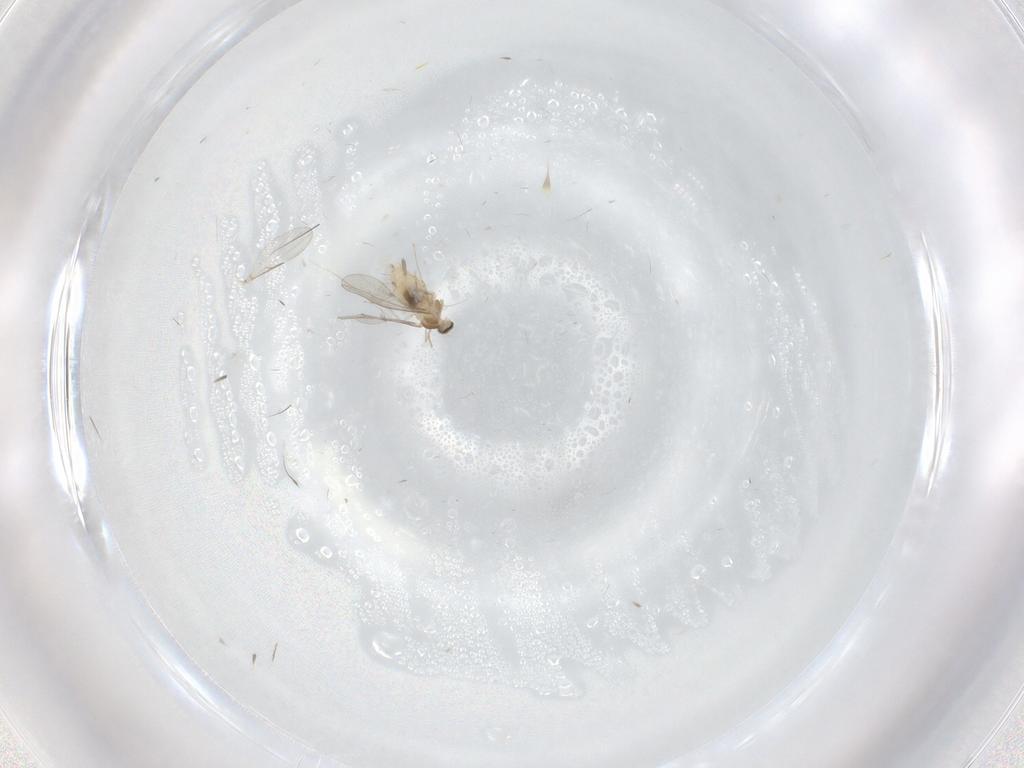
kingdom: Animalia
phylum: Arthropoda
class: Insecta
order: Diptera
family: Cecidomyiidae
